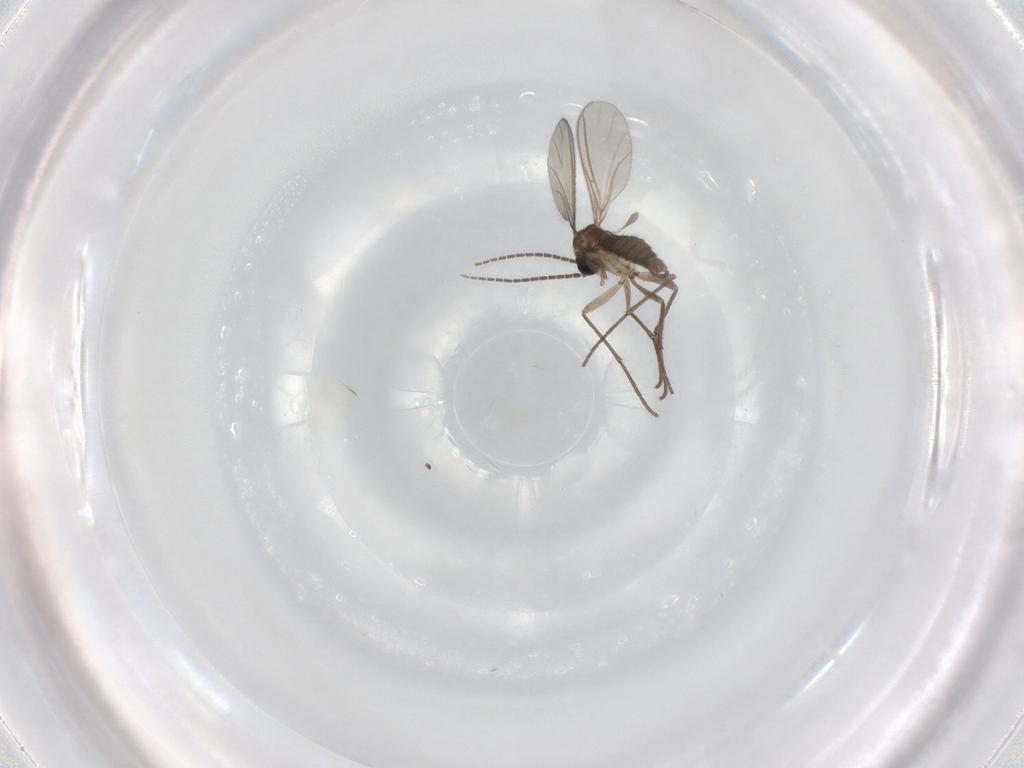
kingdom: Animalia
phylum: Arthropoda
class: Insecta
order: Diptera
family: Sciaridae
